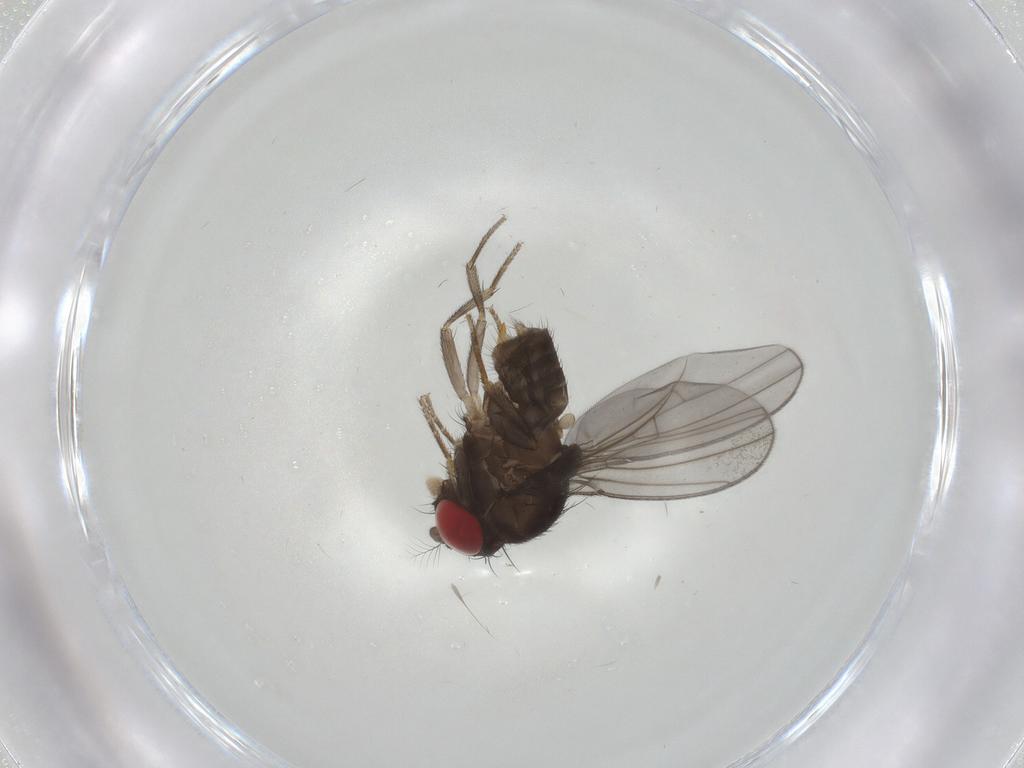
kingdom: Animalia
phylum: Arthropoda
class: Insecta
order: Diptera
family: Drosophilidae
